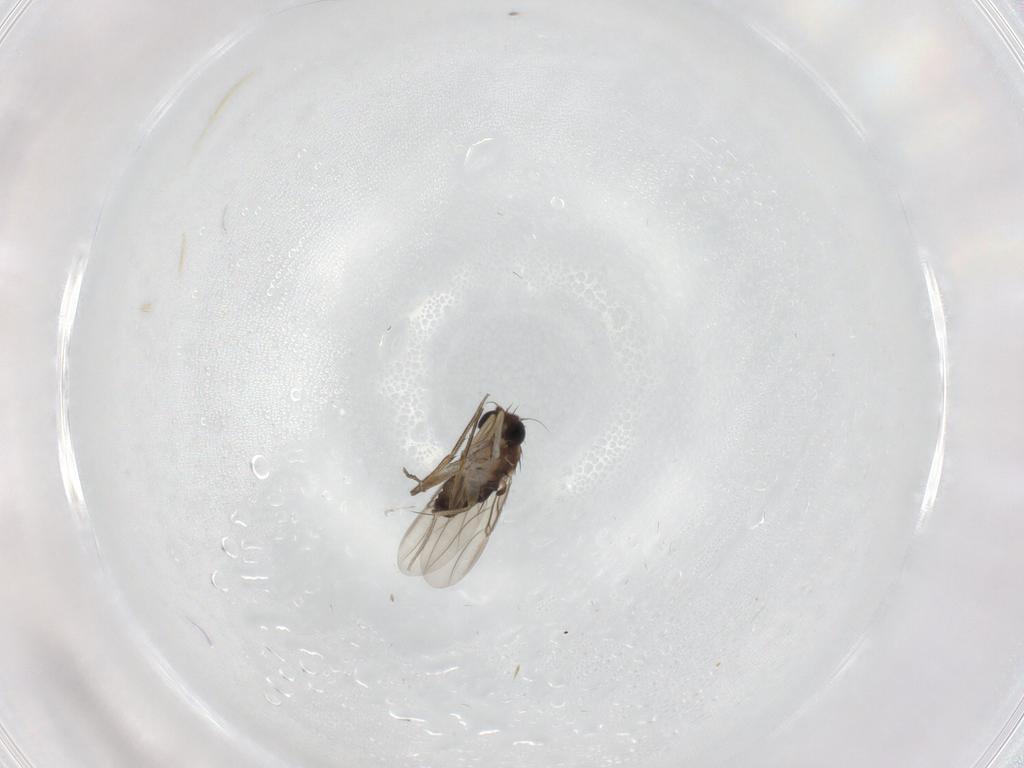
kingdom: Animalia
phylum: Arthropoda
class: Insecta
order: Diptera
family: Phoridae
